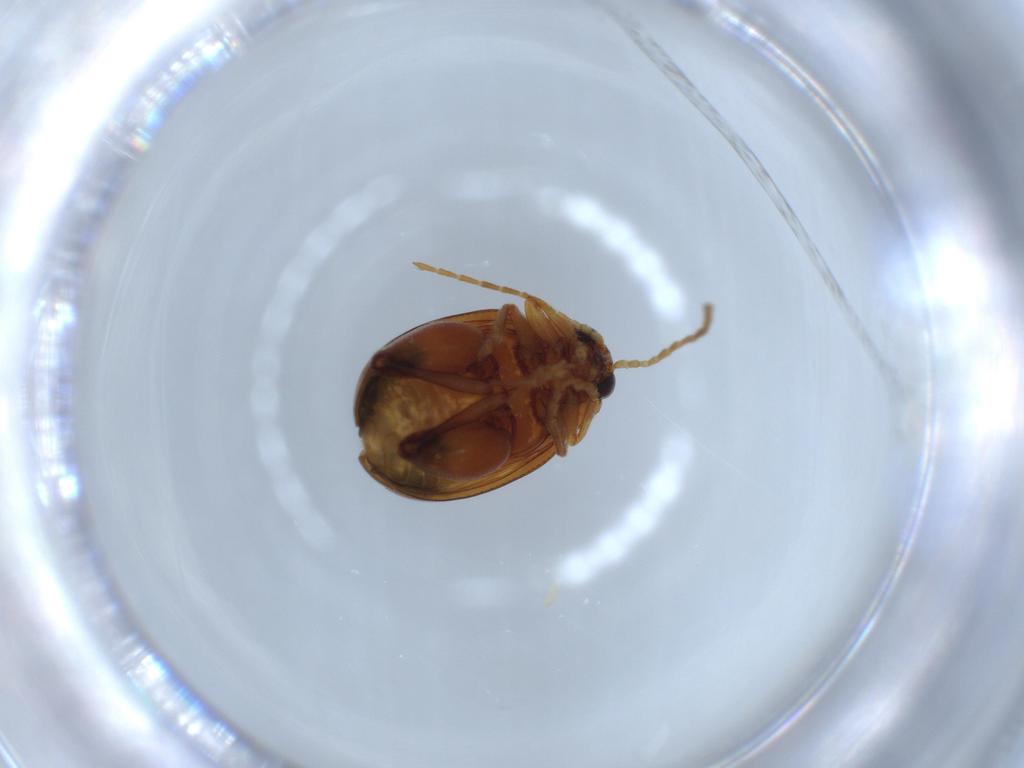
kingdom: Animalia
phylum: Arthropoda
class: Insecta
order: Coleoptera
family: Chrysomelidae
